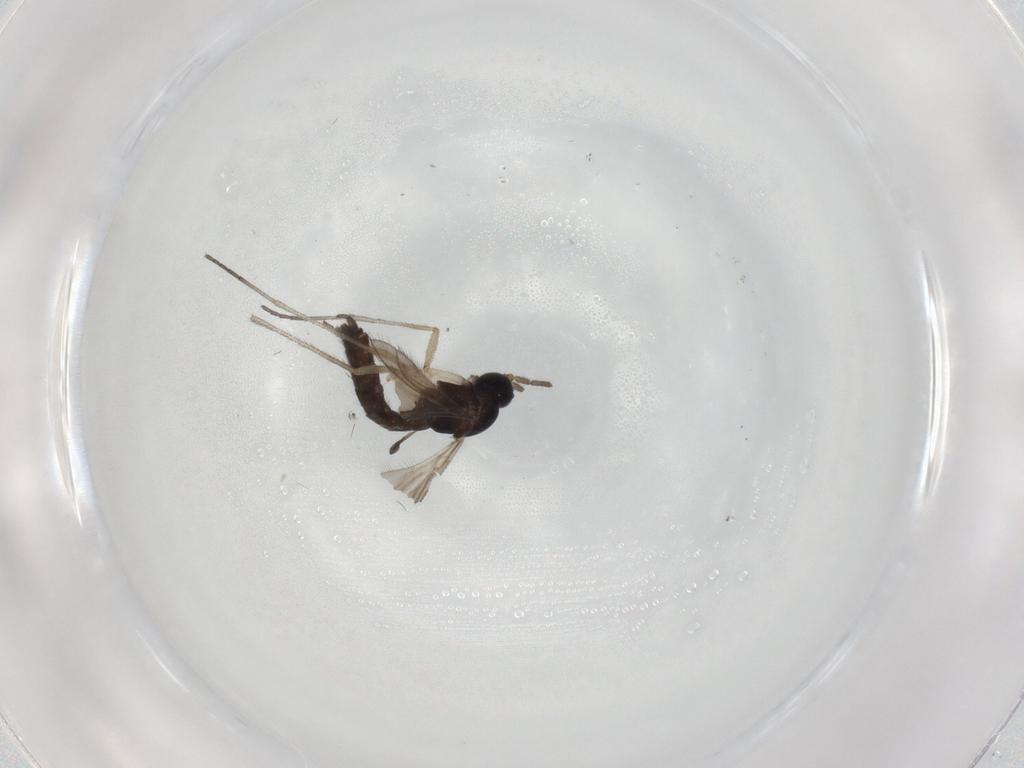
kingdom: Animalia
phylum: Arthropoda
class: Insecta
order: Diptera
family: Sciaridae
